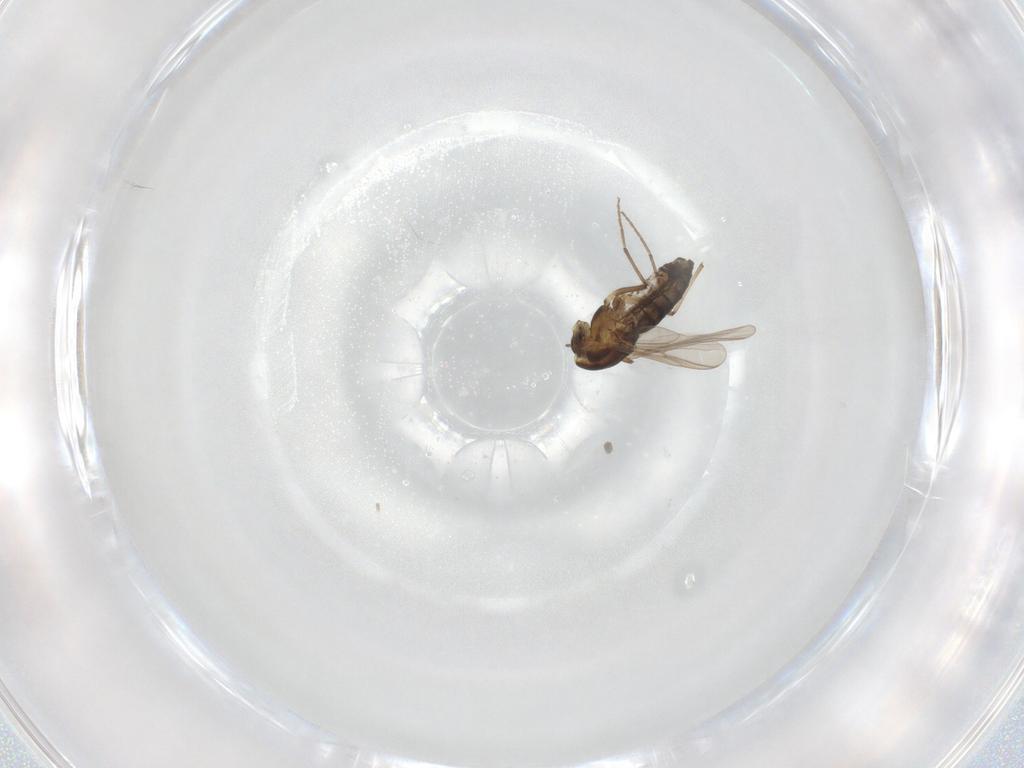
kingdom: Animalia
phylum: Arthropoda
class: Insecta
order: Diptera
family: Chironomidae
